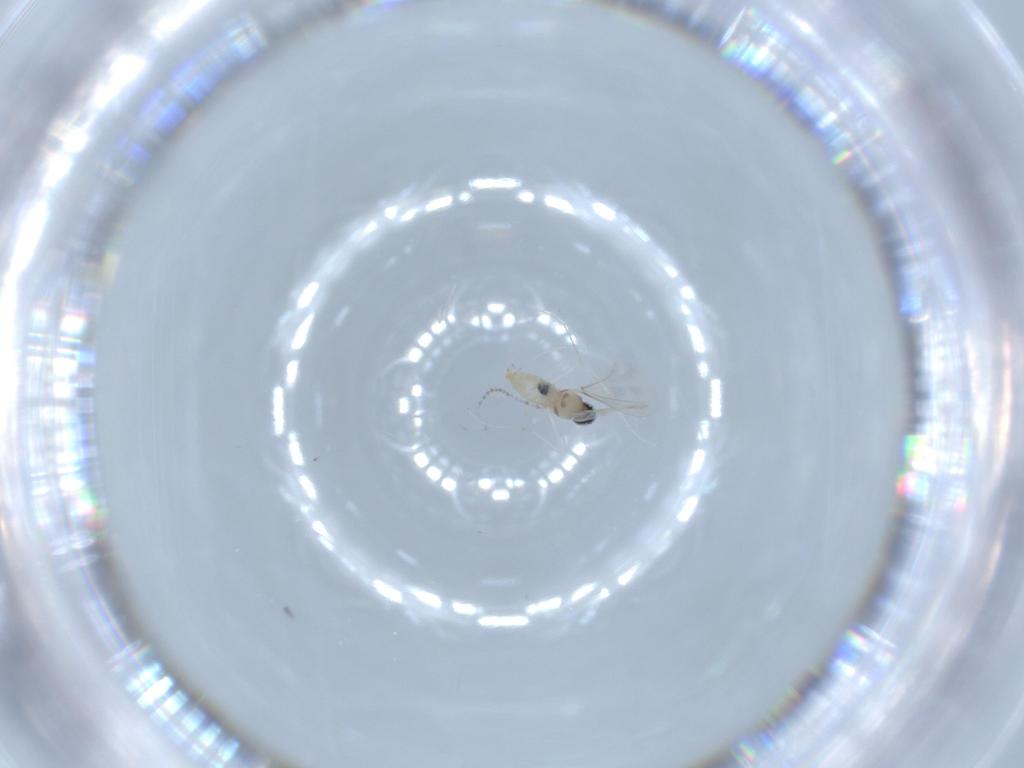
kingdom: Animalia
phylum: Arthropoda
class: Insecta
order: Diptera
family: Cecidomyiidae
